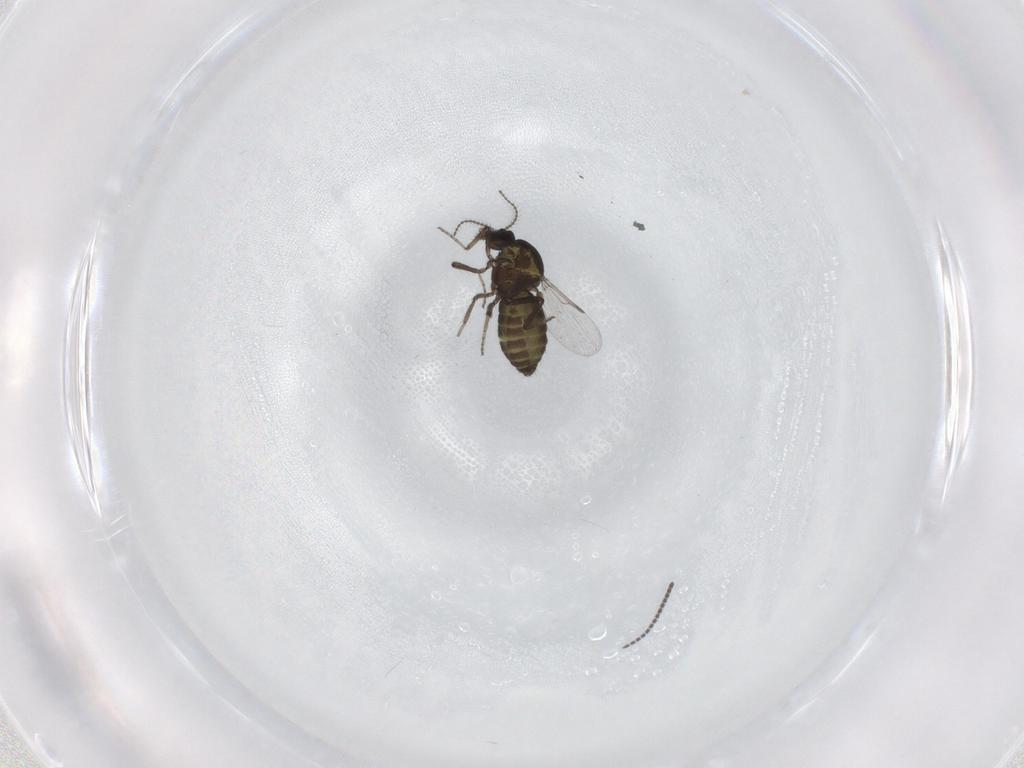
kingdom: Animalia
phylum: Arthropoda
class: Insecta
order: Diptera
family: Ceratopogonidae
